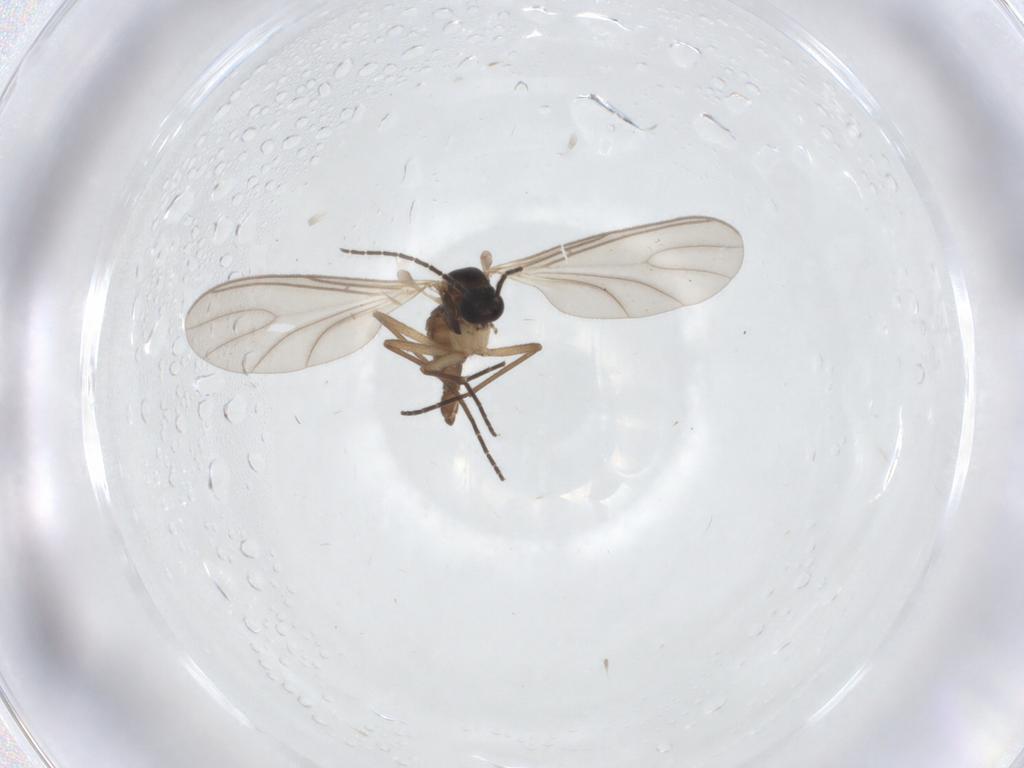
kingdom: Animalia
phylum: Arthropoda
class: Insecta
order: Diptera
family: Sciaridae
